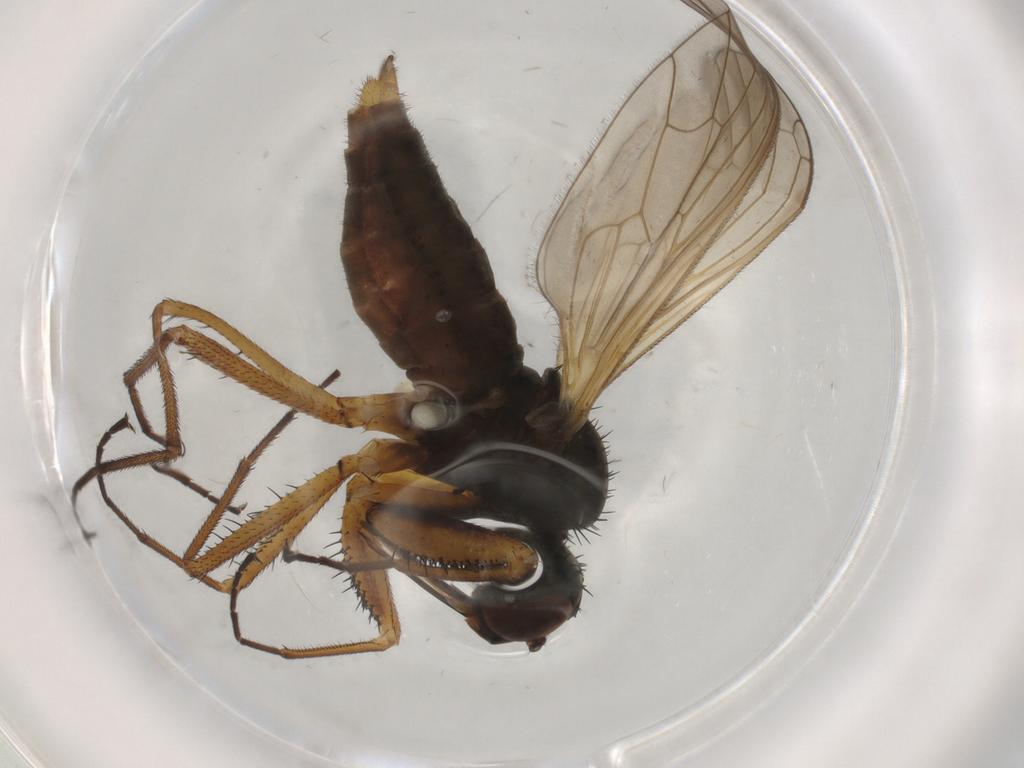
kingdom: Animalia
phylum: Arthropoda
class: Insecta
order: Diptera
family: Empididae
